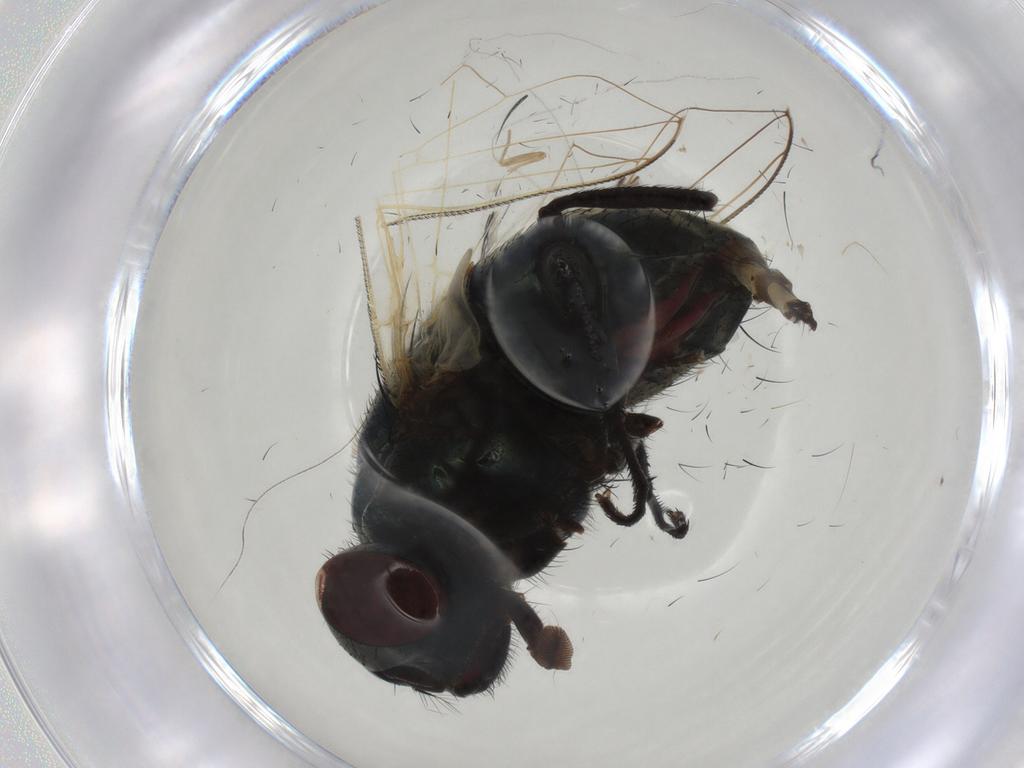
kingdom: Animalia
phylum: Arthropoda
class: Insecta
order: Diptera
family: Muscidae
